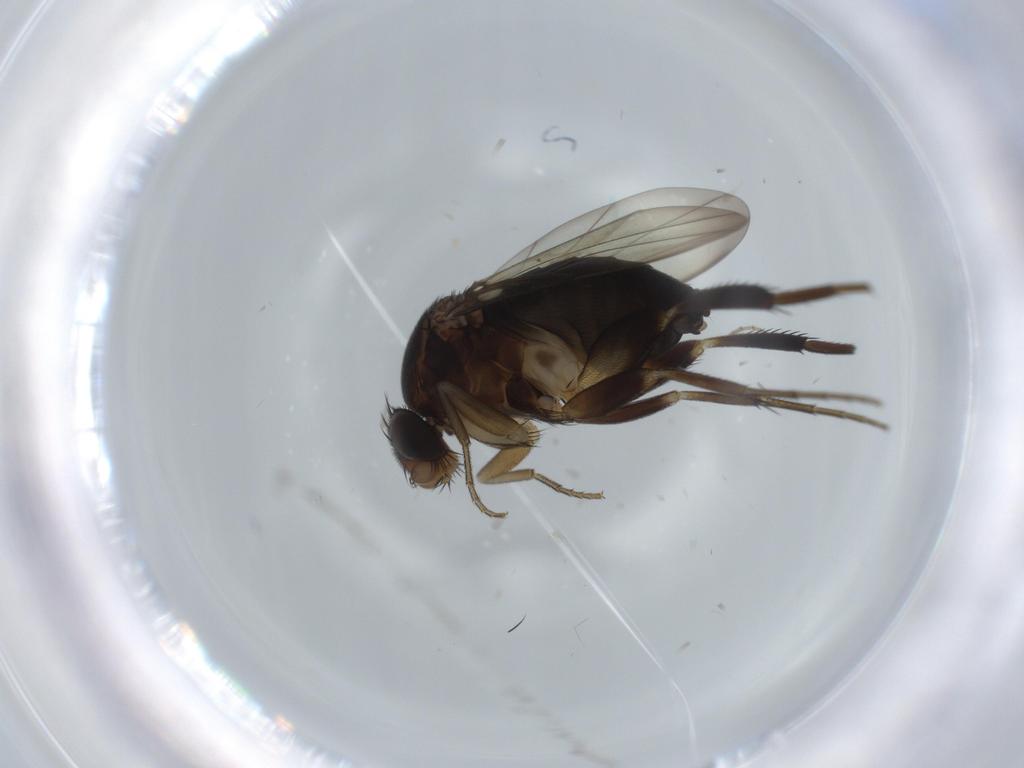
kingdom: Animalia
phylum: Arthropoda
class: Insecta
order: Diptera
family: Phoridae
